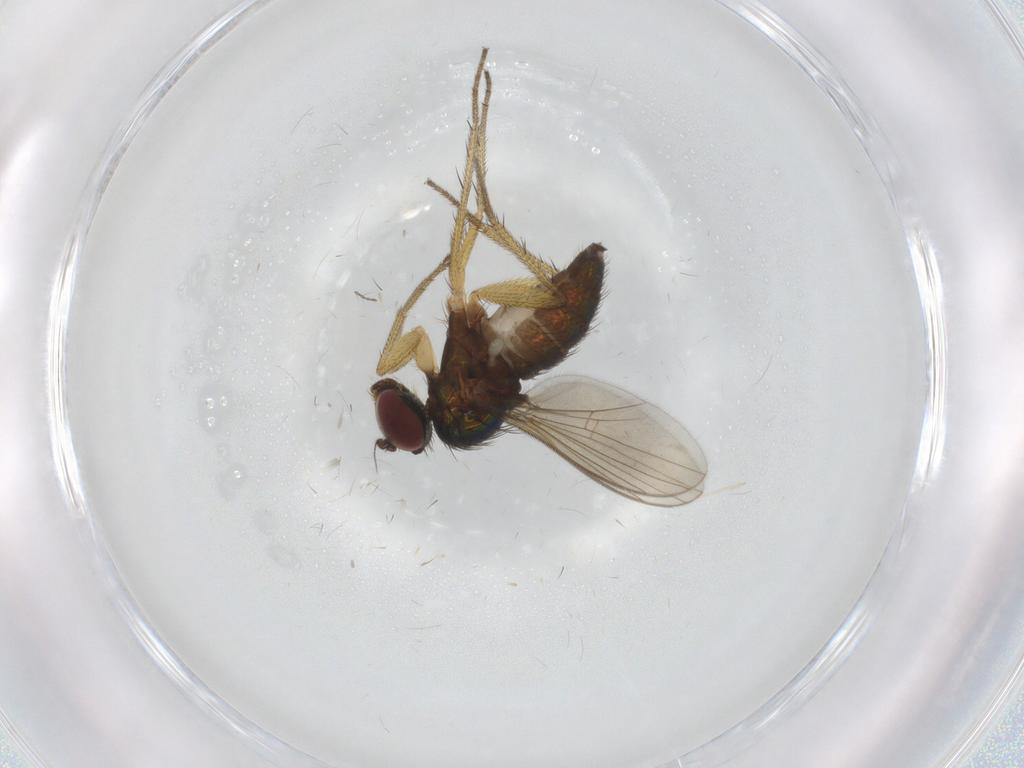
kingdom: Animalia
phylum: Arthropoda
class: Insecta
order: Diptera
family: Dolichopodidae
